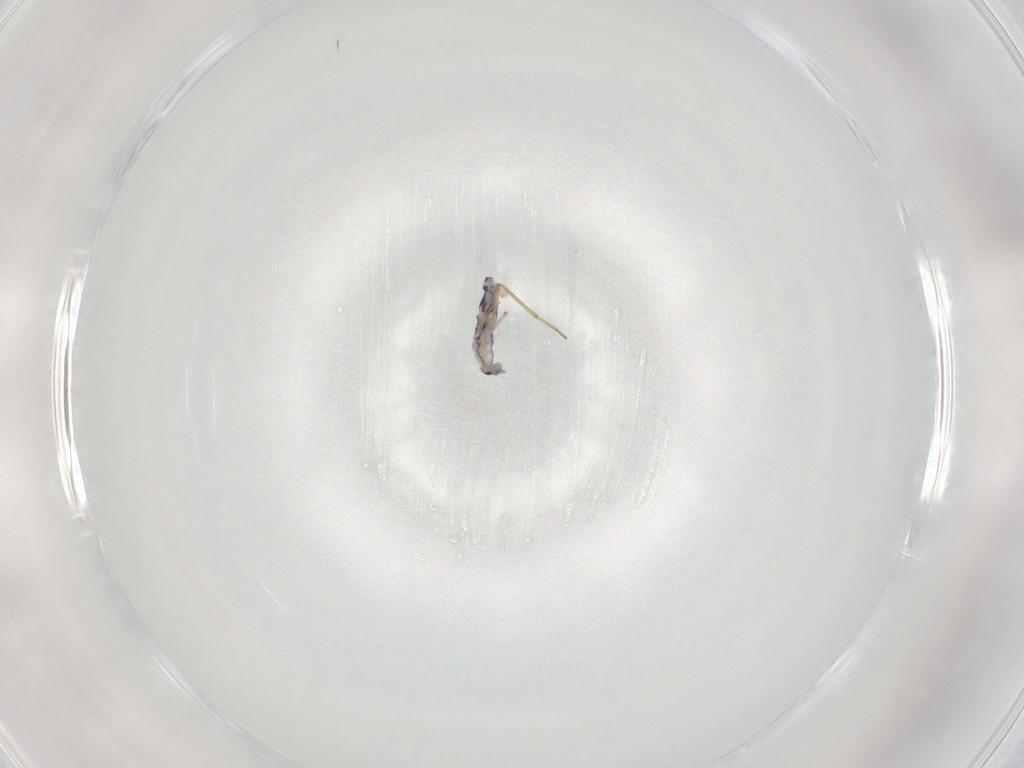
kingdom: Animalia
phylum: Arthropoda
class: Collembola
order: Entomobryomorpha
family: Entomobryidae
